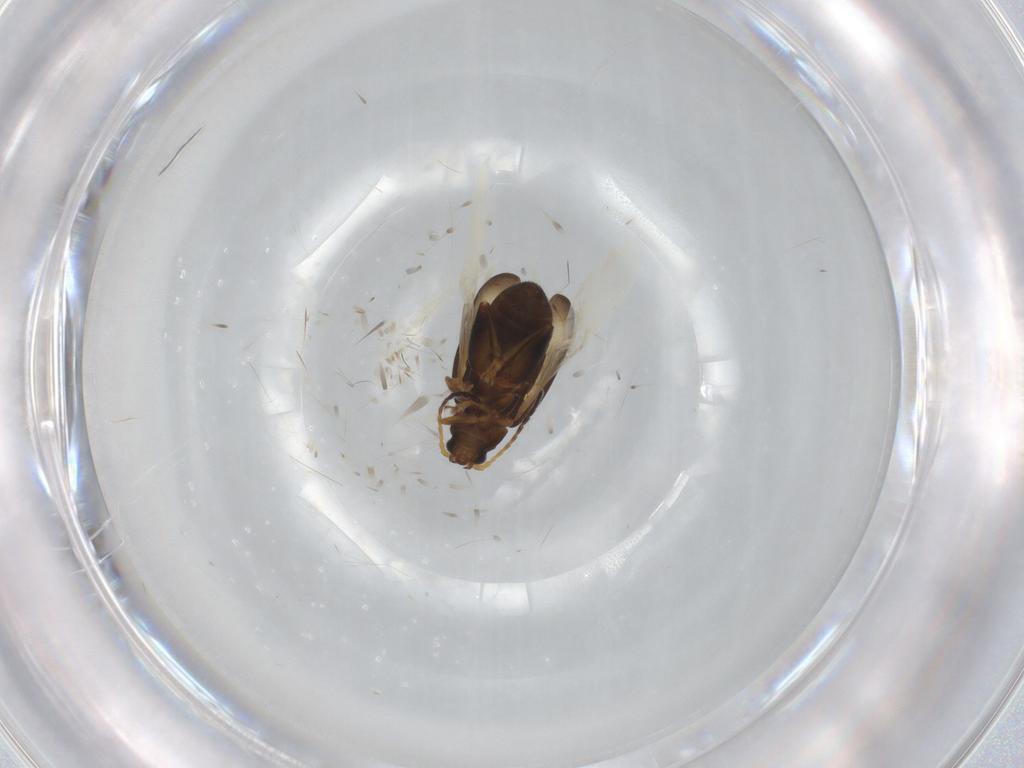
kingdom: Animalia
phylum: Arthropoda
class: Insecta
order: Coleoptera
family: Chrysomelidae
